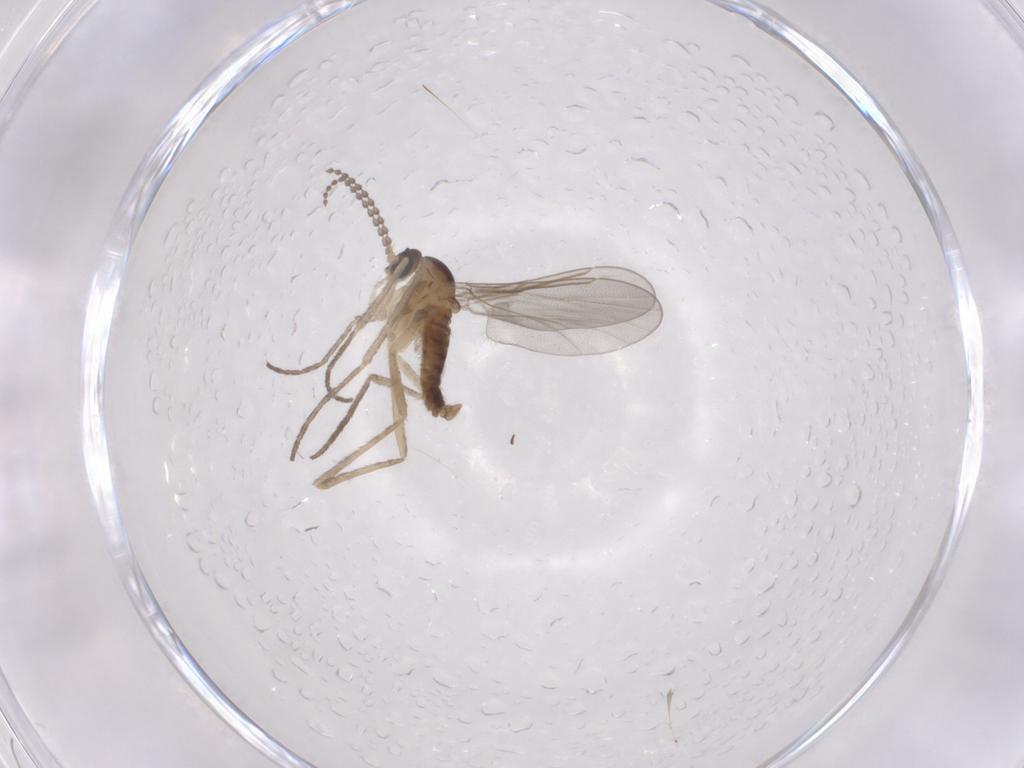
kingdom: Animalia
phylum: Arthropoda
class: Insecta
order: Diptera
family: Cecidomyiidae
